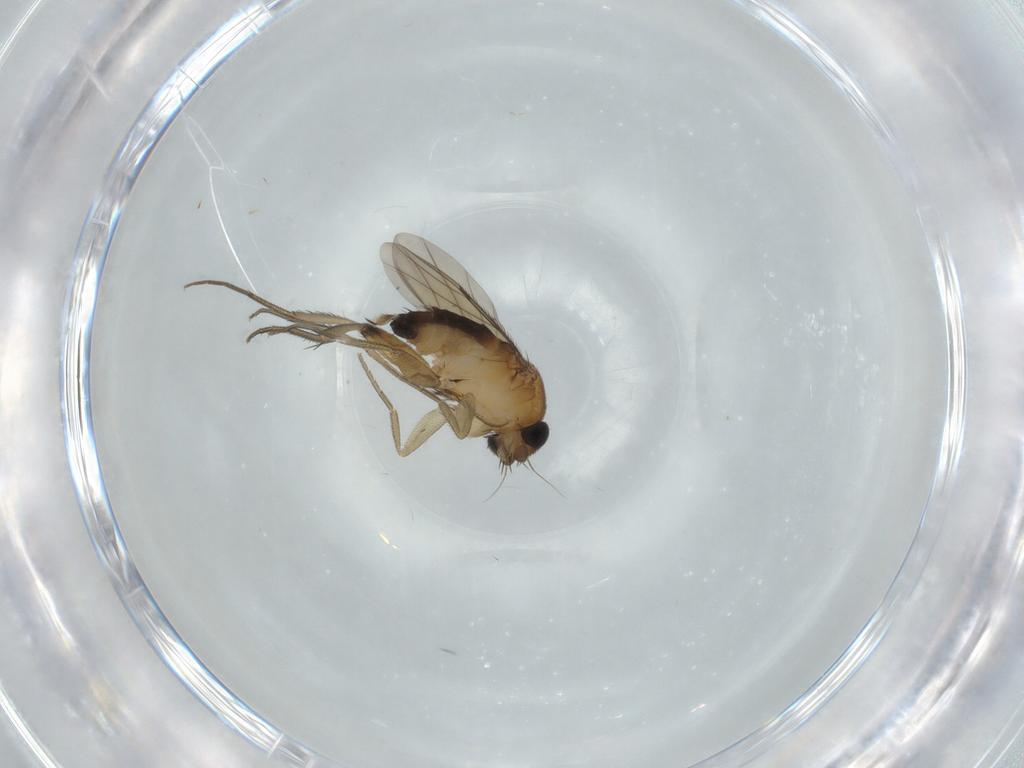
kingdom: Animalia
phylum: Arthropoda
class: Insecta
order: Diptera
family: Phoridae
